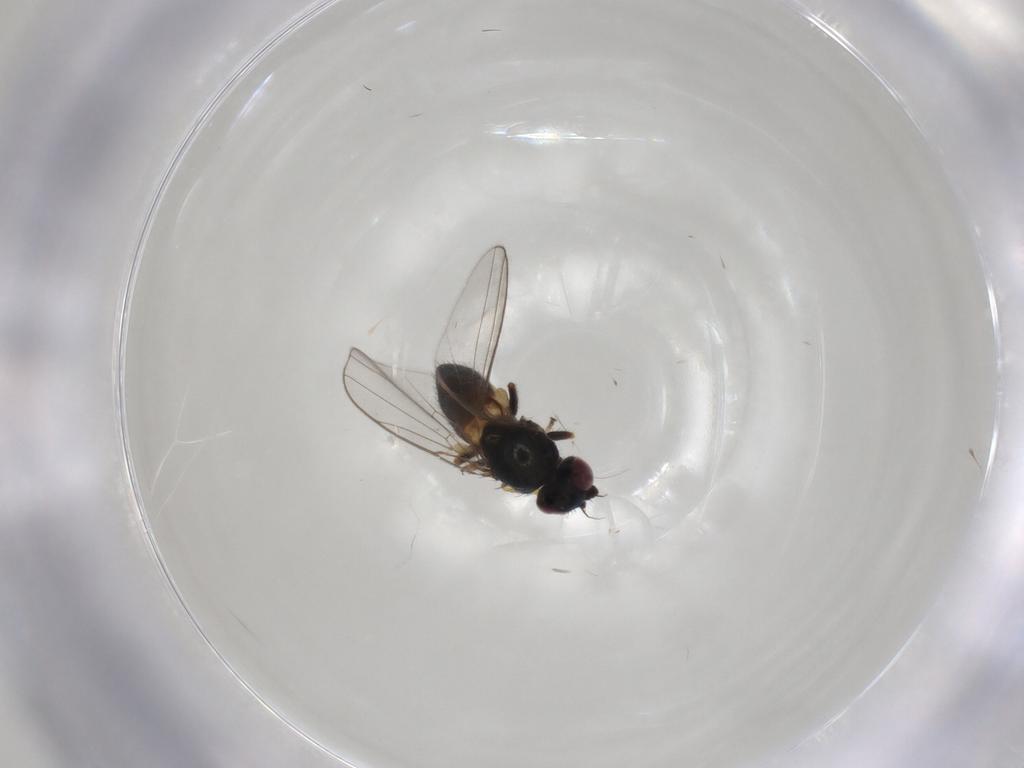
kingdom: Animalia
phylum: Arthropoda
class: Insecta
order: Diptera
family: Chloropidae
